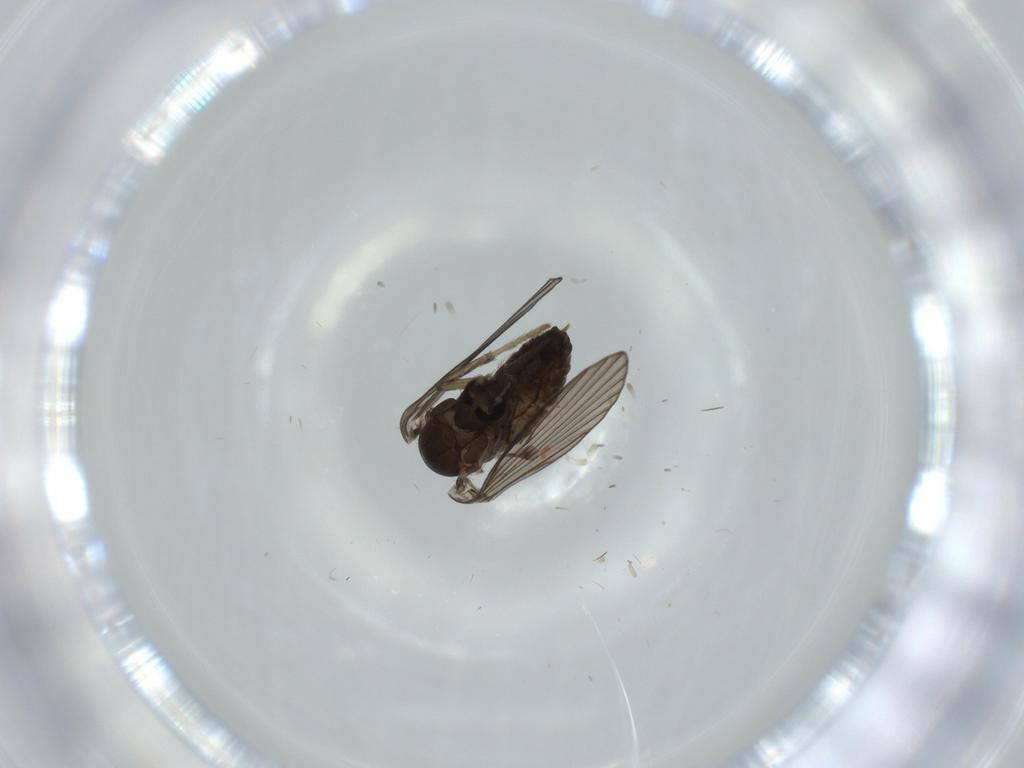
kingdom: Animalia
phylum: Arthropoda
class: Insecta
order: Diptera
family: Psychodidae
